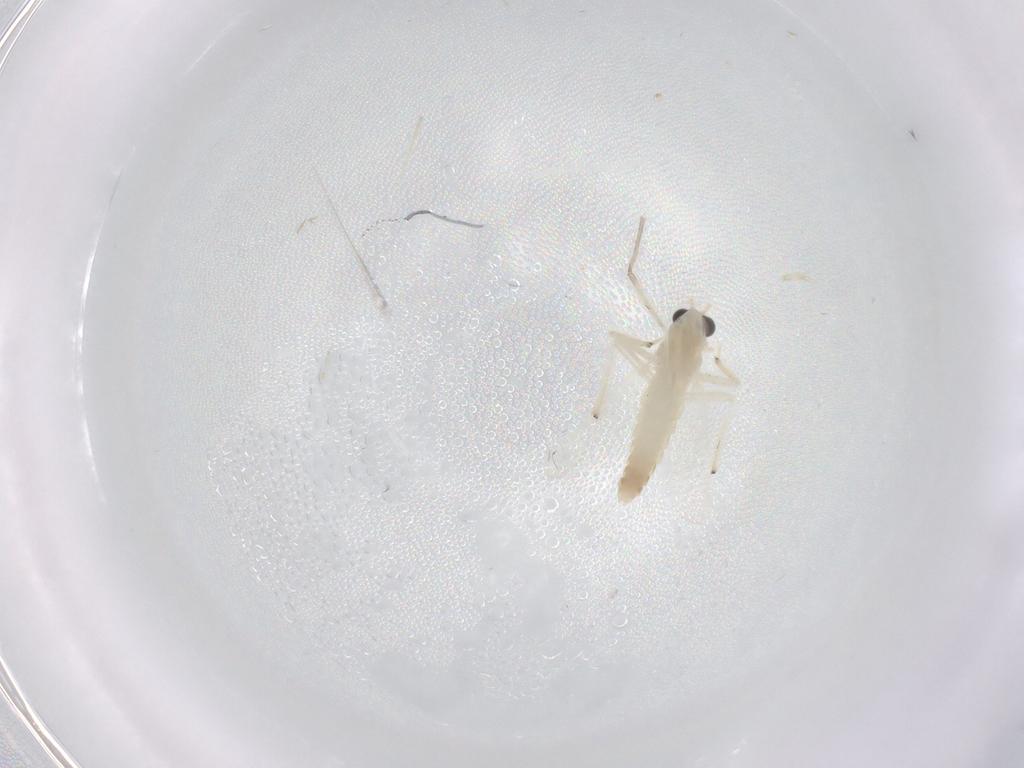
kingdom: Animalia
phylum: Arthropoda
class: Insecta
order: Diptera
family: Chironomidae
